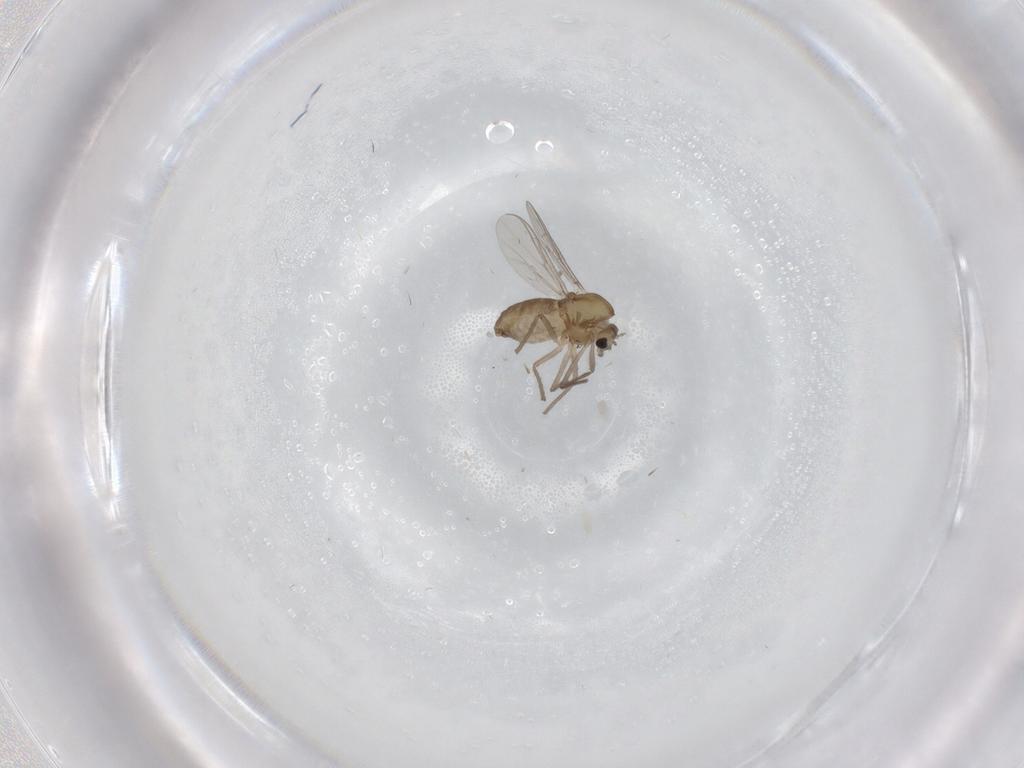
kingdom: Animalia
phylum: Arthropoda
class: Insecta
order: Diptera
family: Chironomidae
